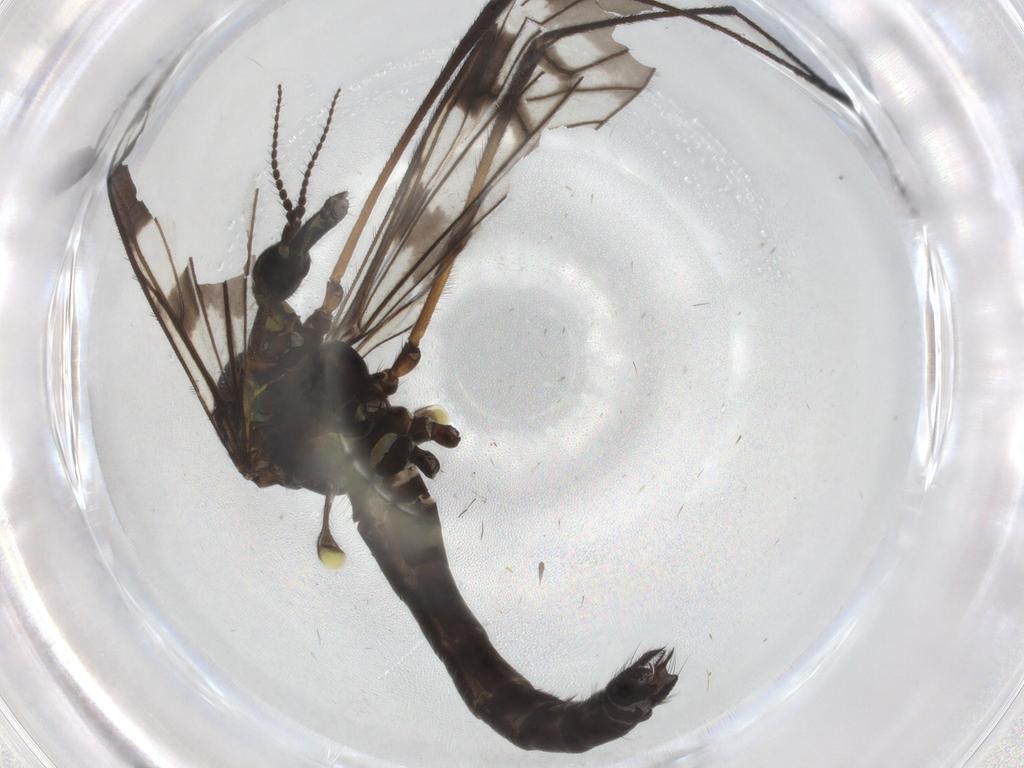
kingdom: Animalia
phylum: Arthropoda
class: Insecta
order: Diptera
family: Limoniidae
